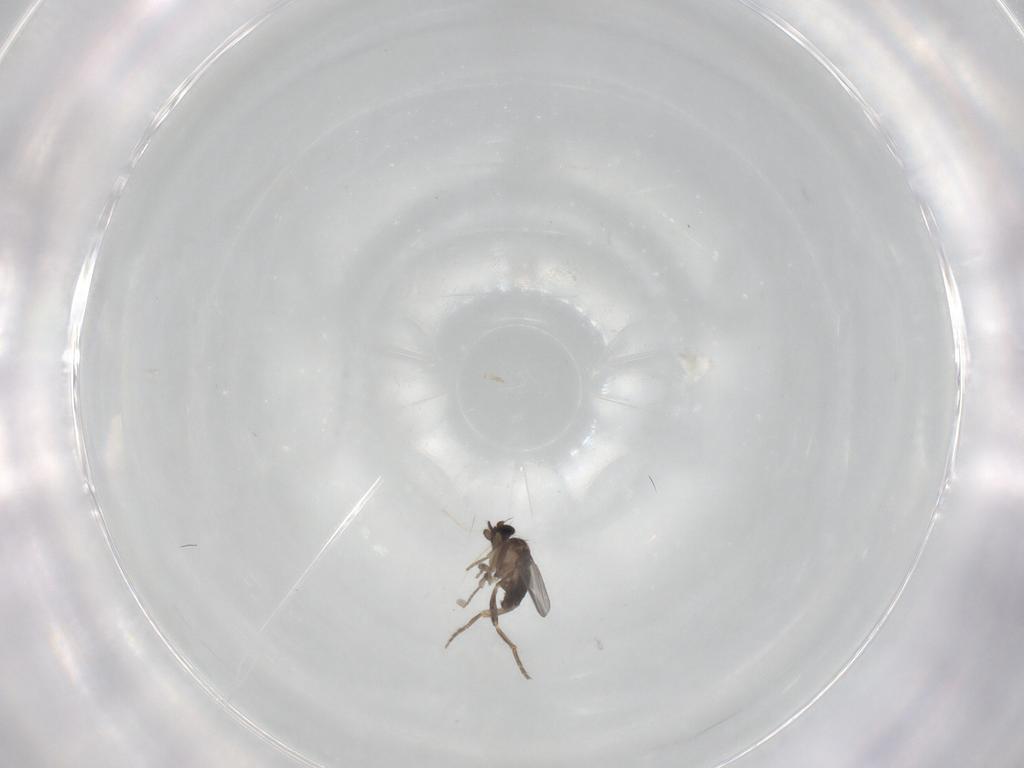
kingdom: Animalia
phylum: Arthropoda
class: Insecta
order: Diptera
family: Phoridae
